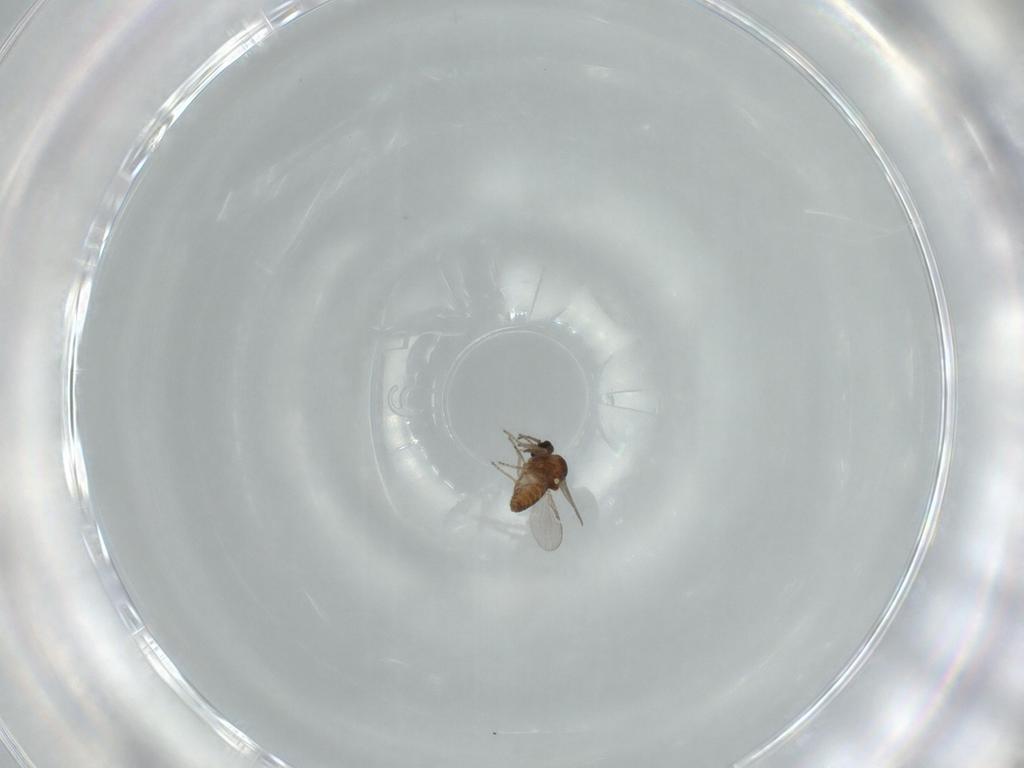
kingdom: Animalia
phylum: Arthropoda
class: Insecta
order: Diptera
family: Ceratopogonidae
